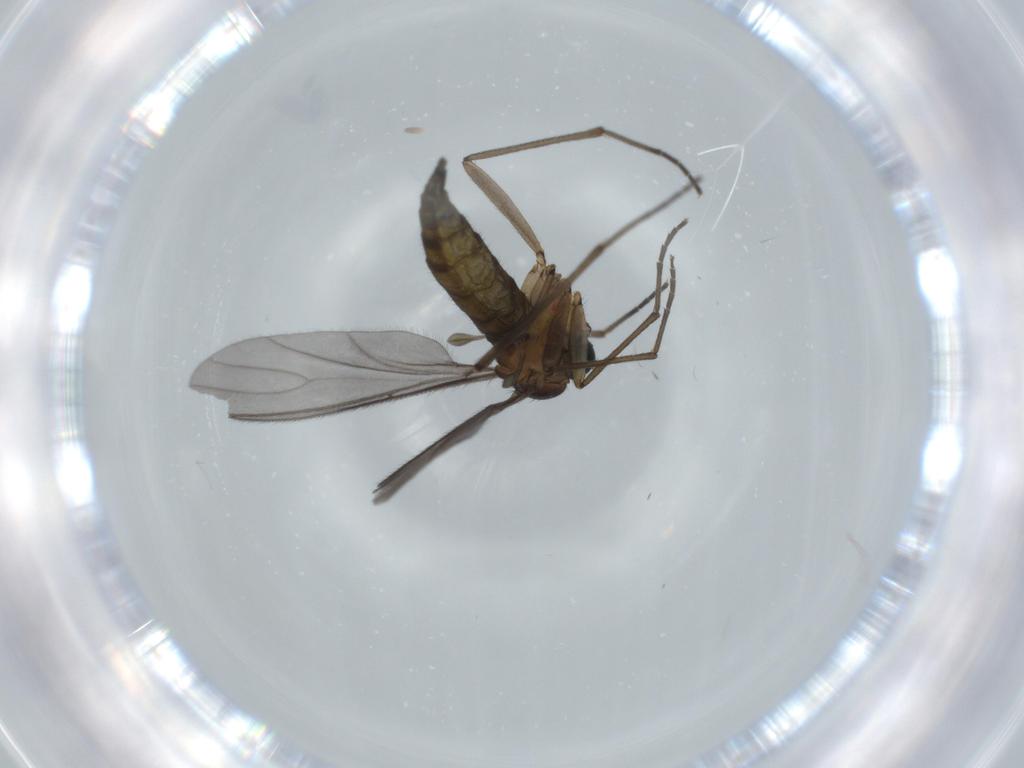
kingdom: Animalia
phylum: Arthropoda
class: Insecta
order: Diptera
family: Sciaridae
